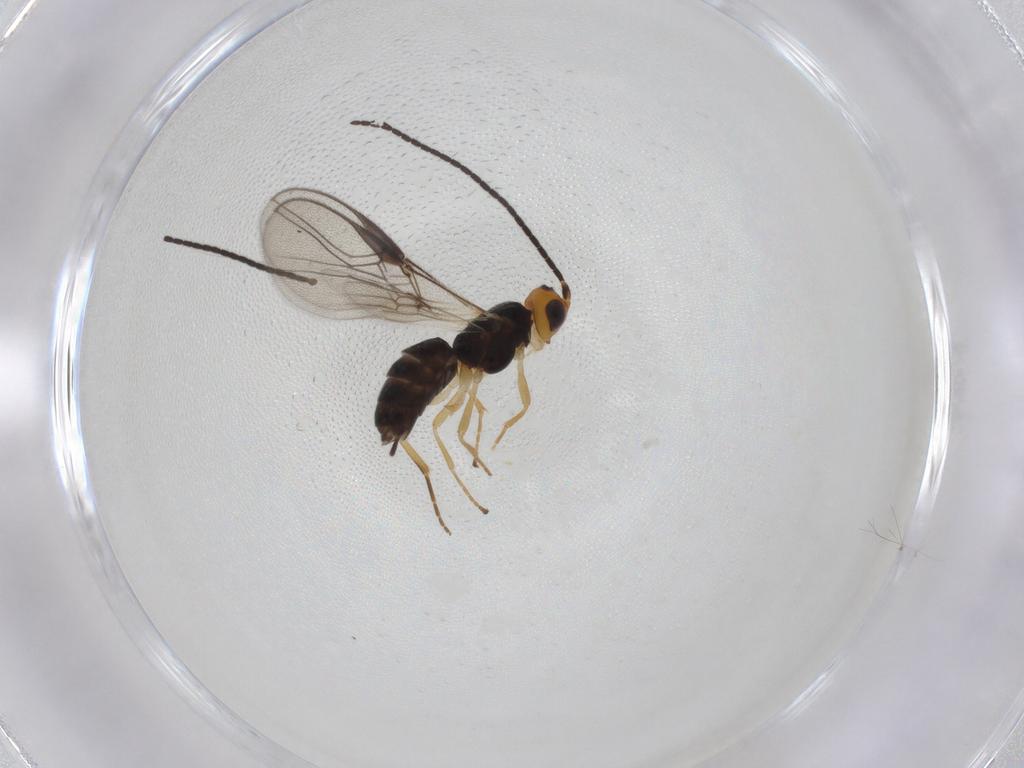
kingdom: Animalia
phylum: Arthropoda
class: Insecta
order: Hymenoptera
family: Braconidae
